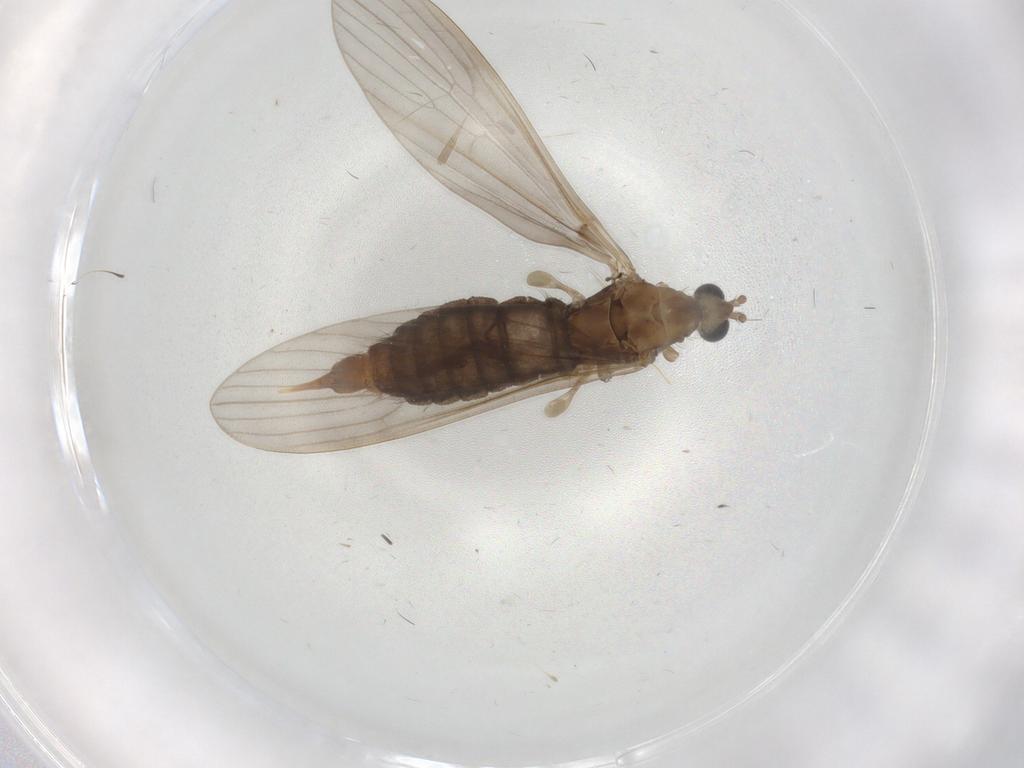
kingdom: Animalia
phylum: Arthropoda
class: Insecta
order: Diptera
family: Limoniidae
